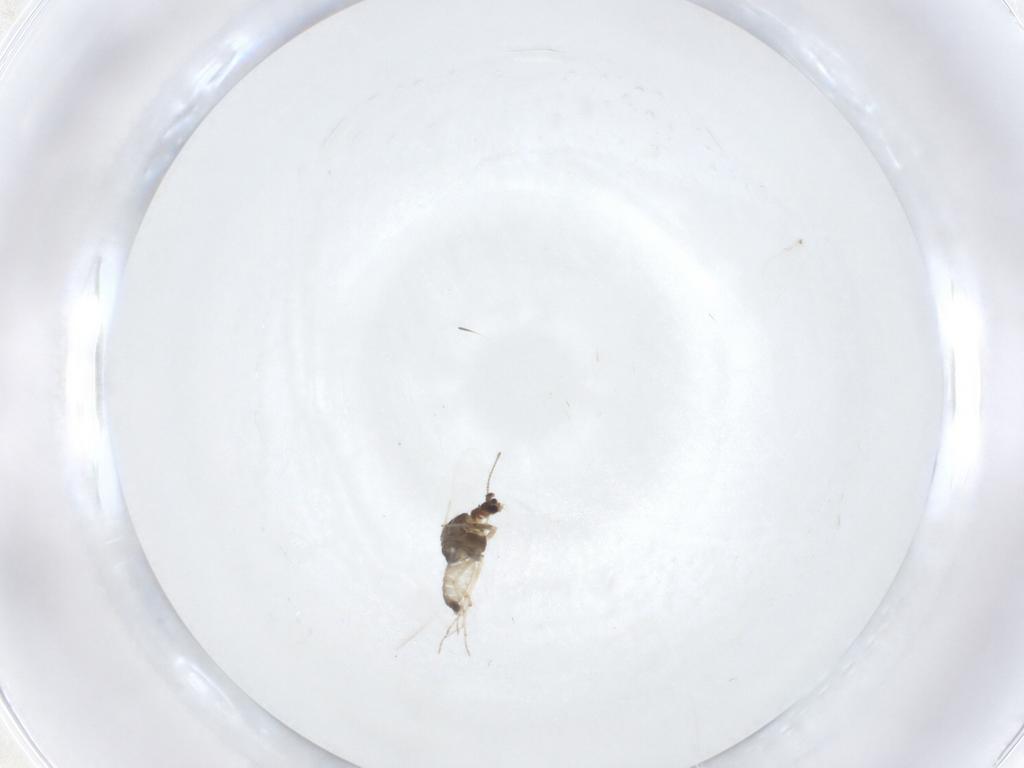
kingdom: Animalia
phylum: Arthropoda
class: Insecta
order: Diptera
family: Chironomidae
